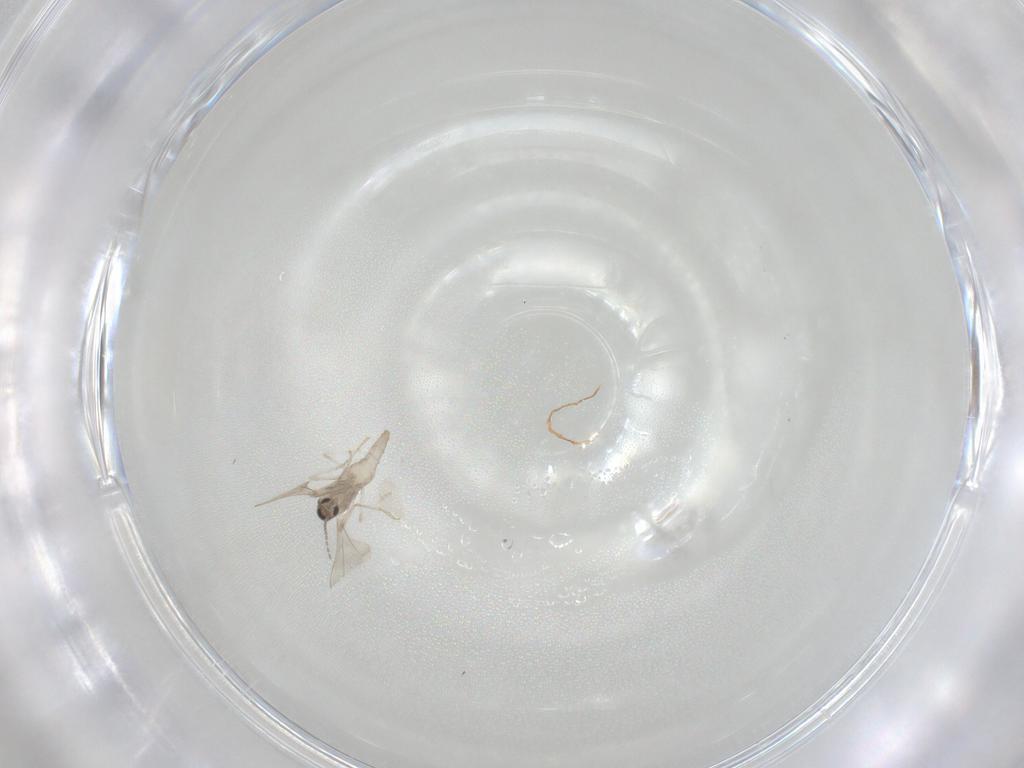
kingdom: Animalia
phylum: Arthropoda
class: Insecta
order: Diptera
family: Cecidomyiidae
